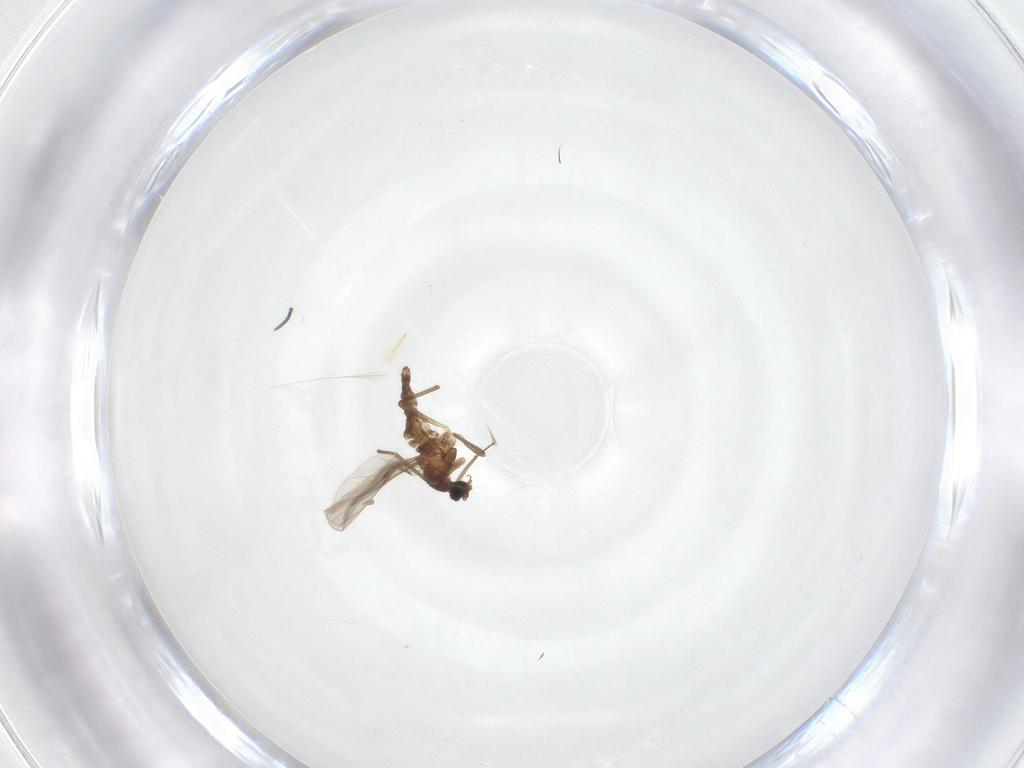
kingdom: Animalia
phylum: Arthropoda
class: Insecta
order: Diptera
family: Cecidomyiidae
